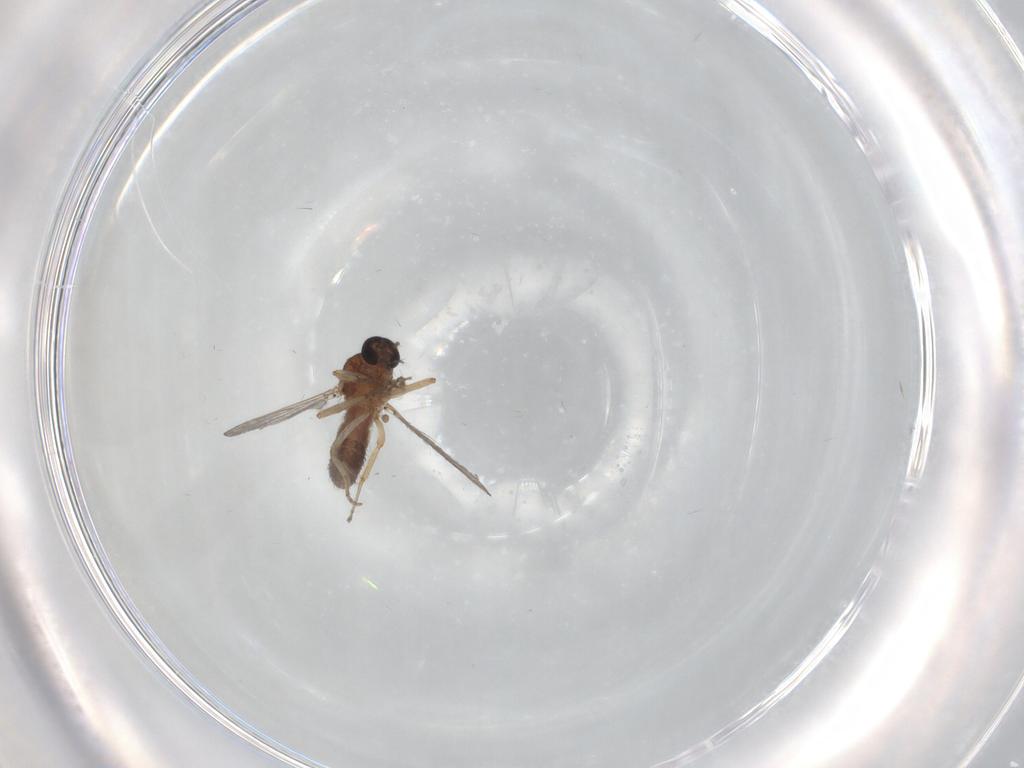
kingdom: Animalia
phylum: Arthropoda
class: Insecta
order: Diptera
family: Ceratopogonidae
